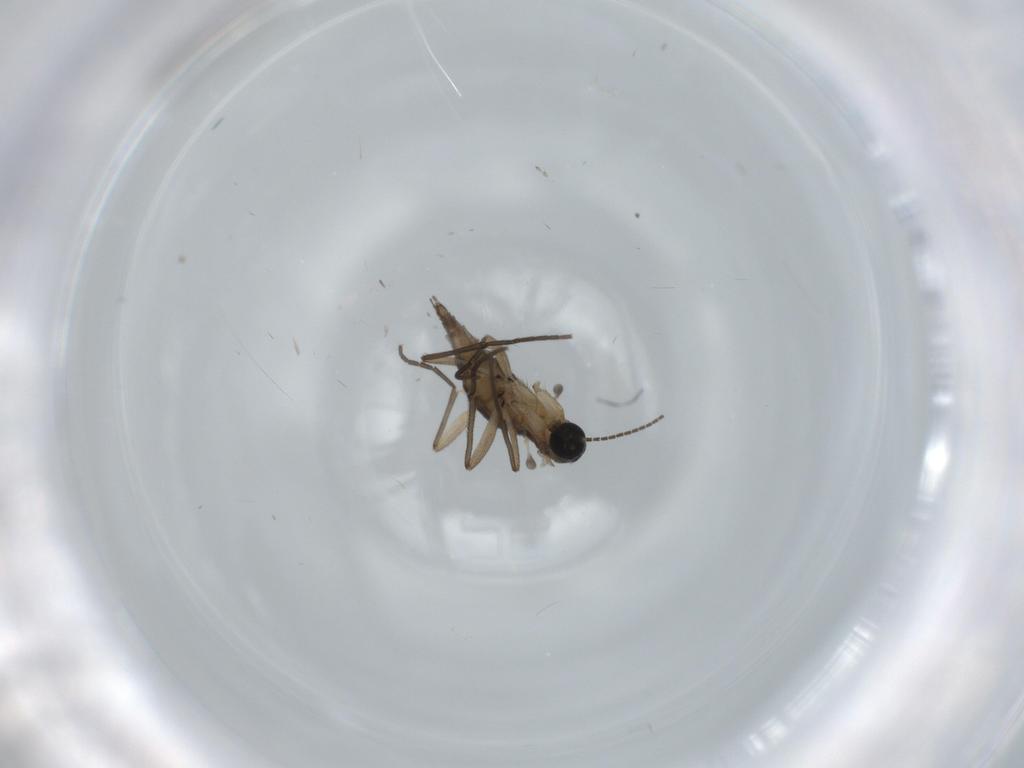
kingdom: Animalia
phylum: Arthropoda
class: Insecta
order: Diptera
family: Sciaridae
